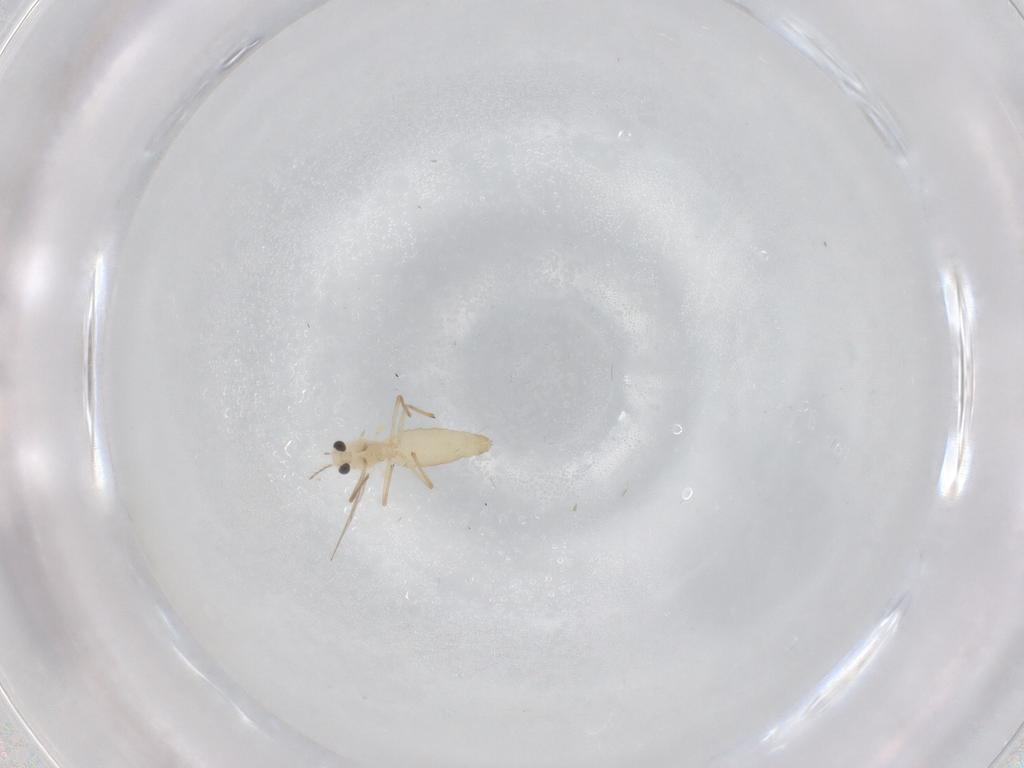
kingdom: Animalia
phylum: Arthropoda
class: Insecta
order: Diptera
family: Chironomidae
